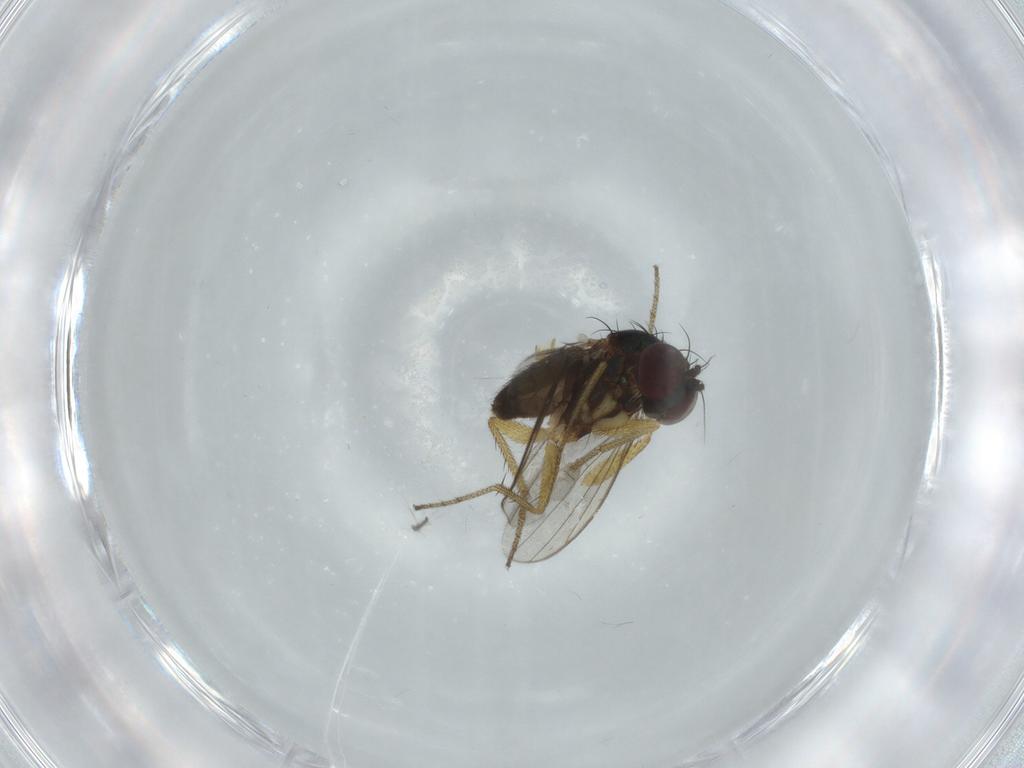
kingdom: Animalia
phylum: Arthropoda
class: Insecta
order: Diptera
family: Dolichopodidae
